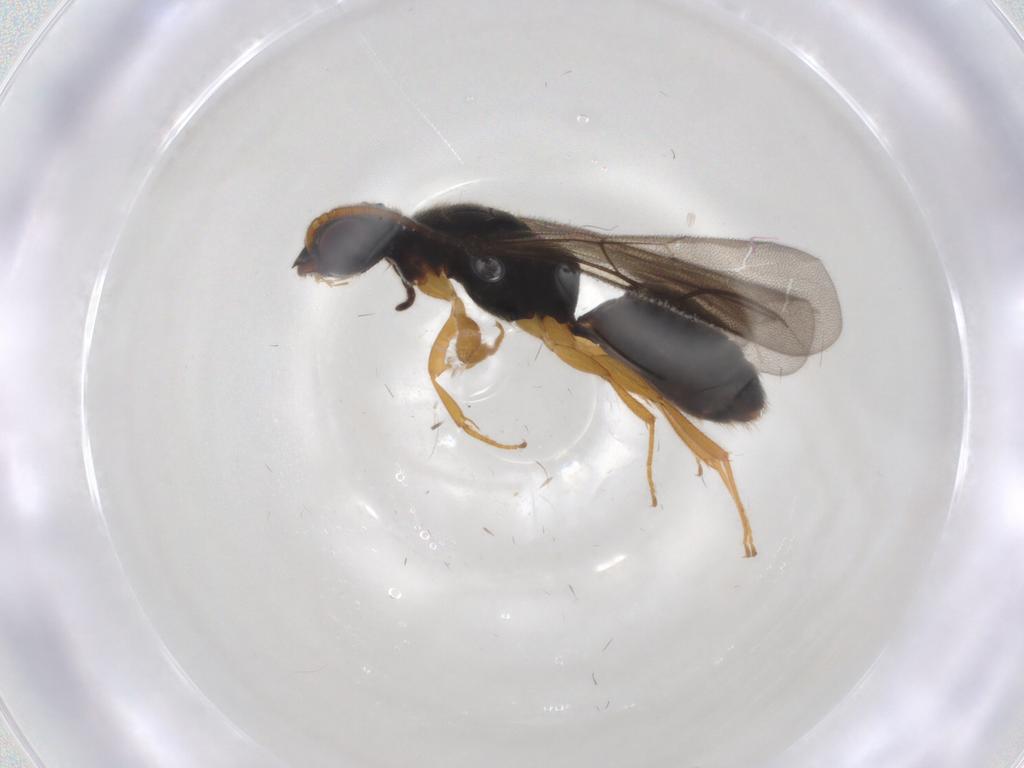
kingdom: Animalia
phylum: Arthropoda
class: Insecta
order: Hymenoptera
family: Bethylidae
